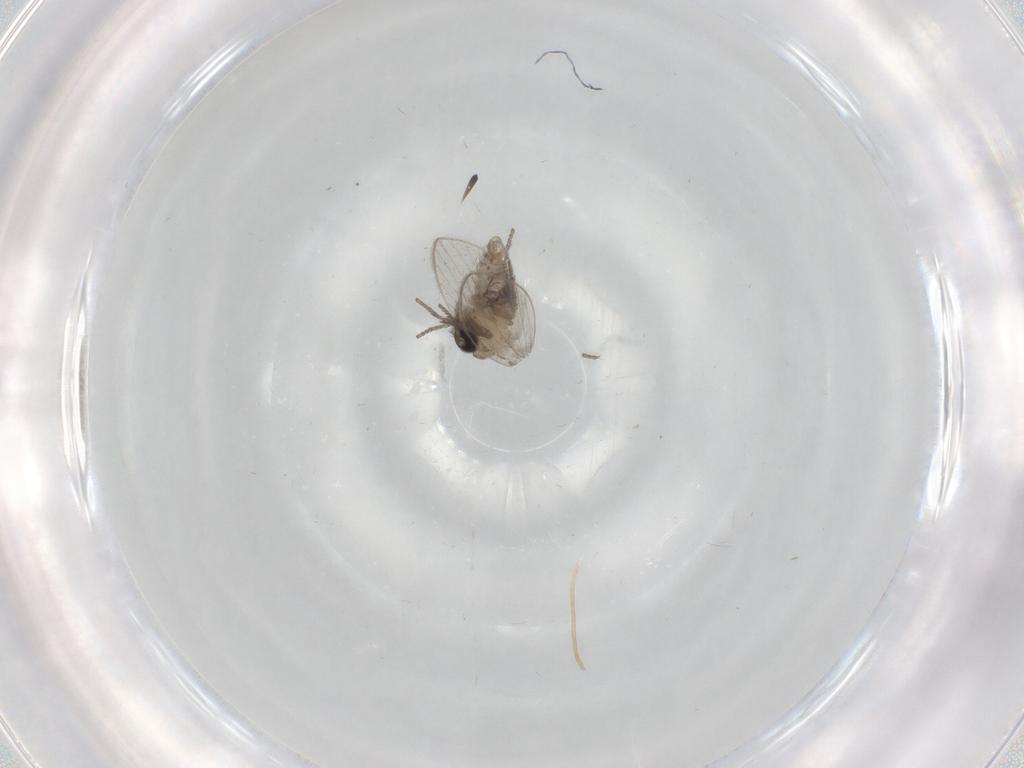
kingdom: Animalia
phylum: Arthropoda
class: Insecta
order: Diptera
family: Psychodidae
